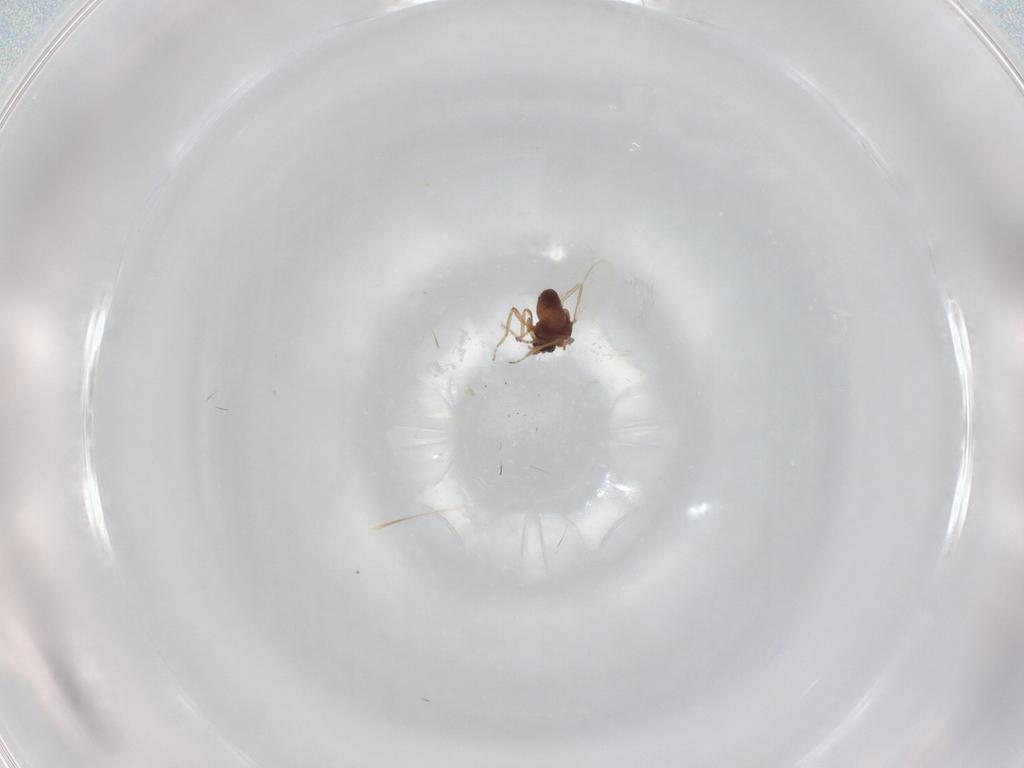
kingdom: Animalia
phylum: Arthropoda
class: Insecta
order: Diptera
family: Ceratopogonidae
